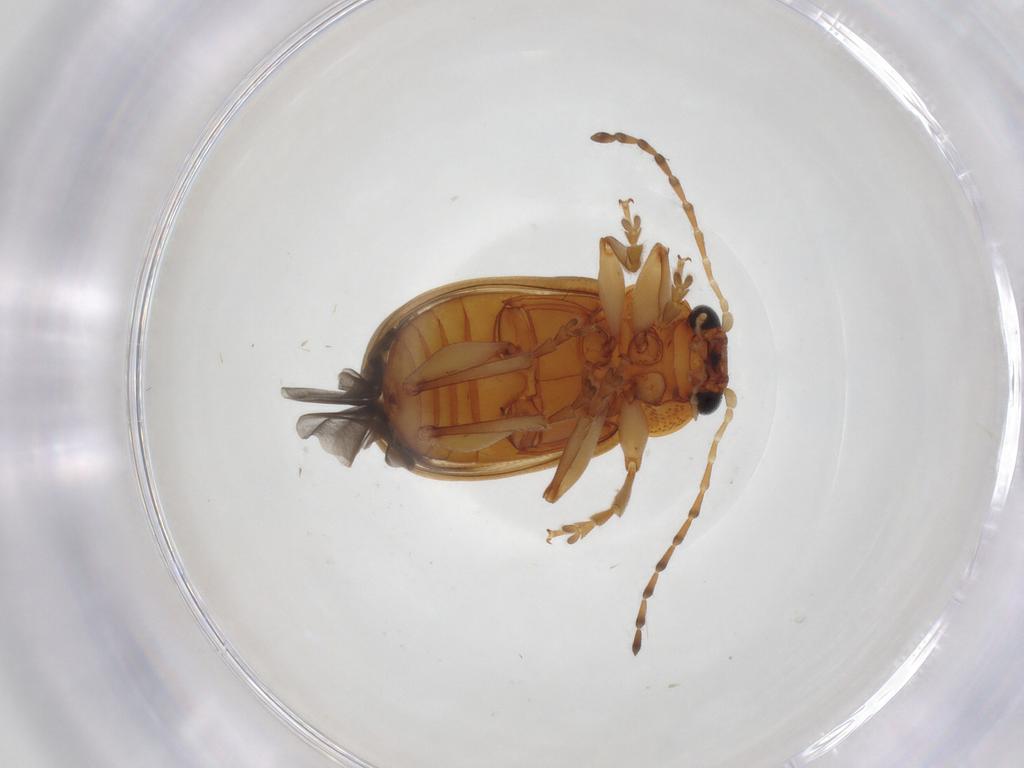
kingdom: Animalia
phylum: Arthropoda
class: Insecta
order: Coleoptera
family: Chrysomelidae
